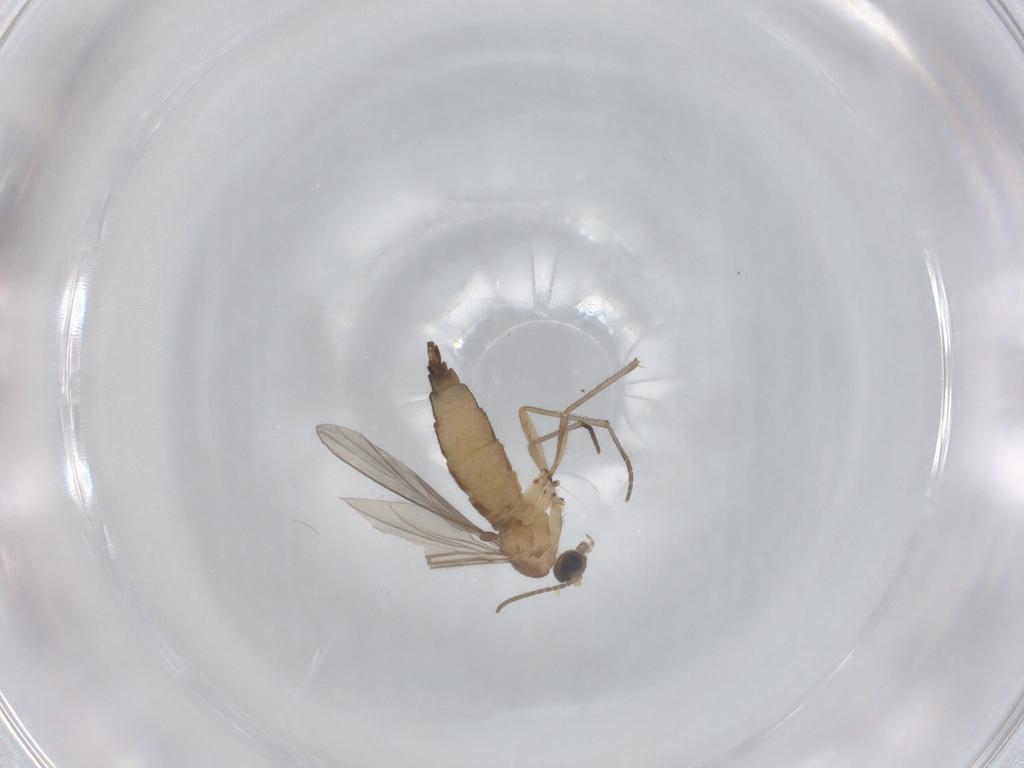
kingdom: Animalia
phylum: Arthropoda
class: Insecta
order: Diptera
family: Sciaridae
